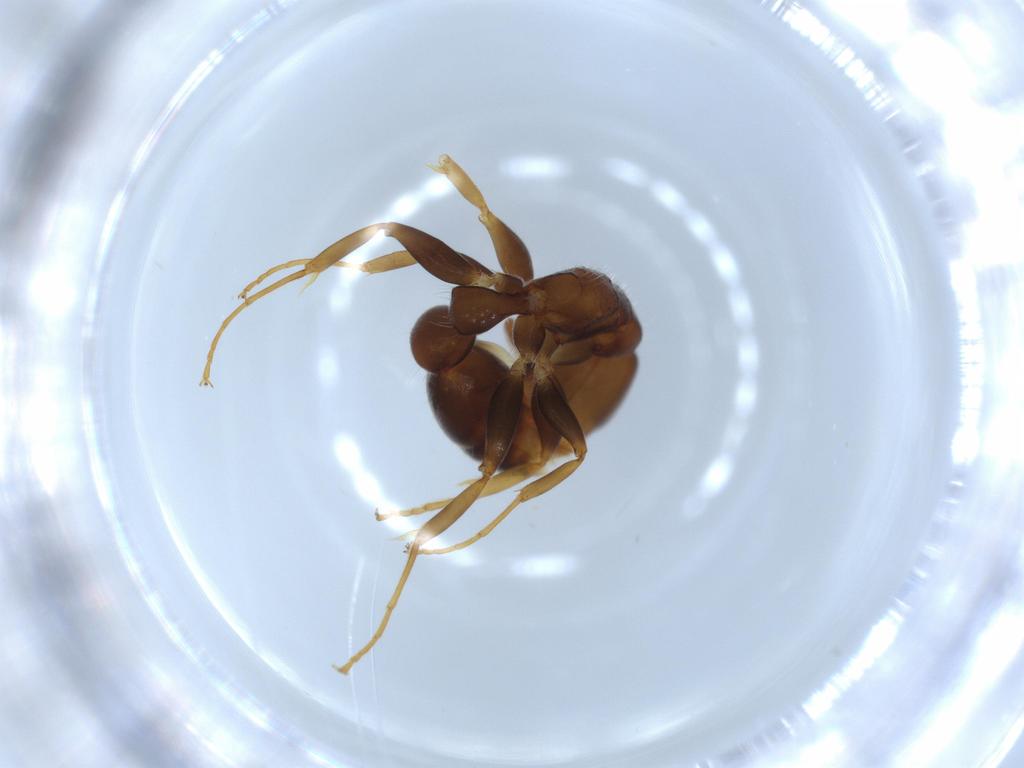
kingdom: Animalia
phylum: Arthropoda
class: Insecta
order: Hymenoptera
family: Formicidae
